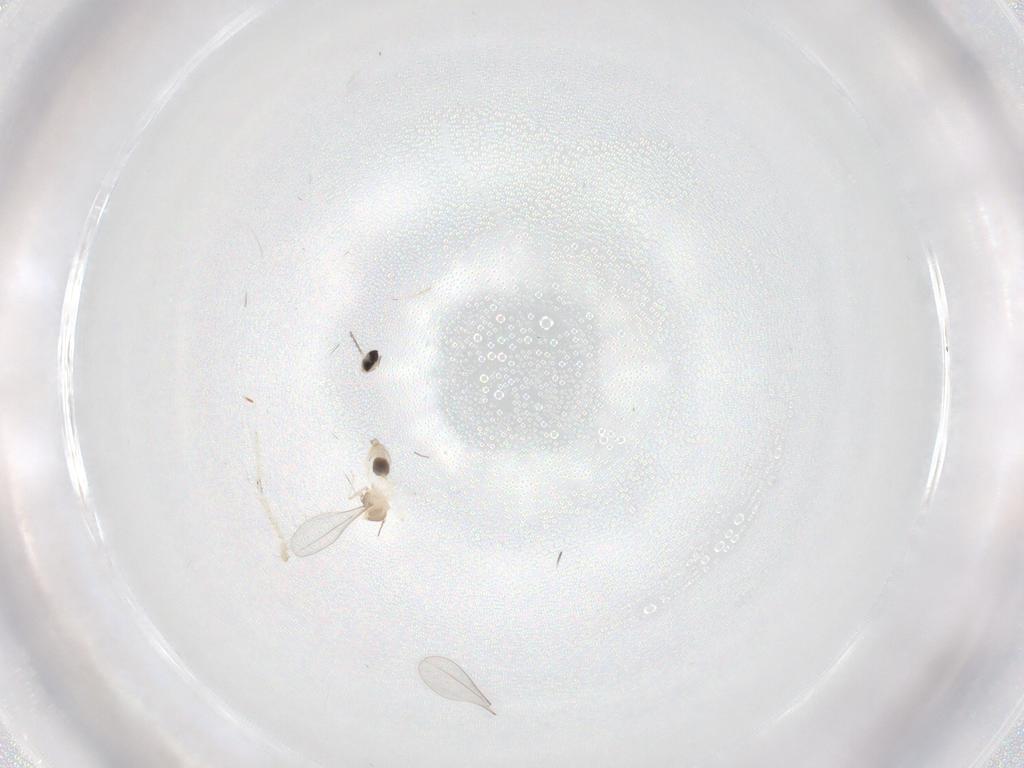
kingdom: Animalia
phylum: Arthropoda
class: Insecta
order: Diptera
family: Cecidomyiidae
